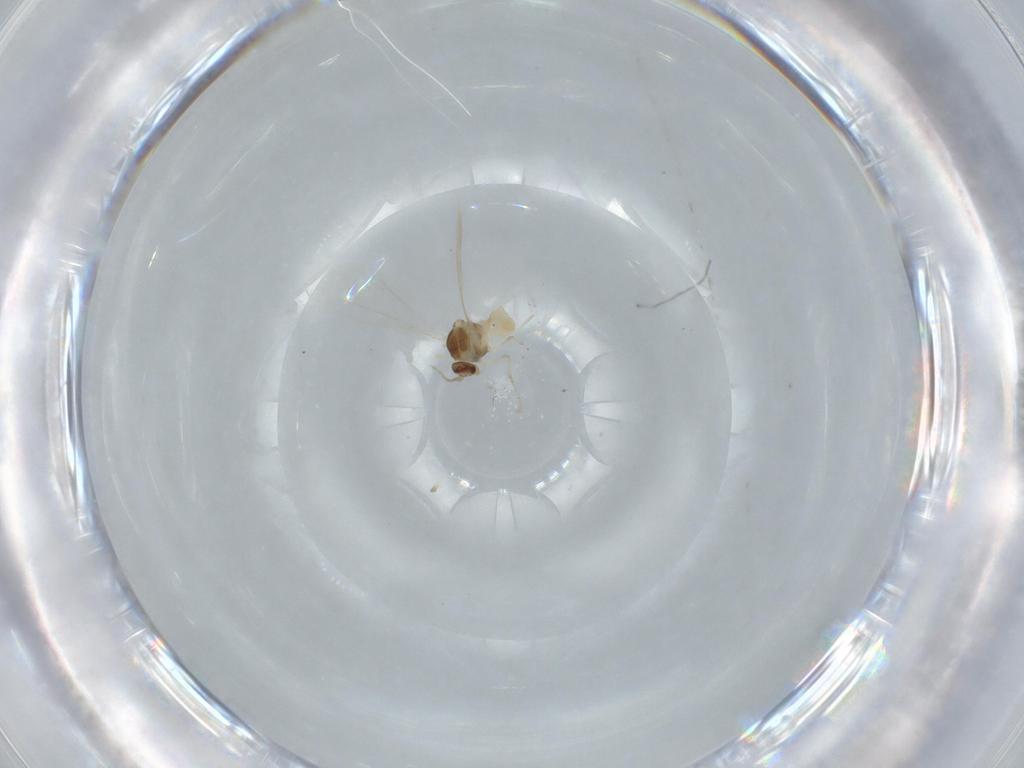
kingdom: Animalia
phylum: Arthropoda
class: Insecta
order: Diptera
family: Cecidomyiidae
